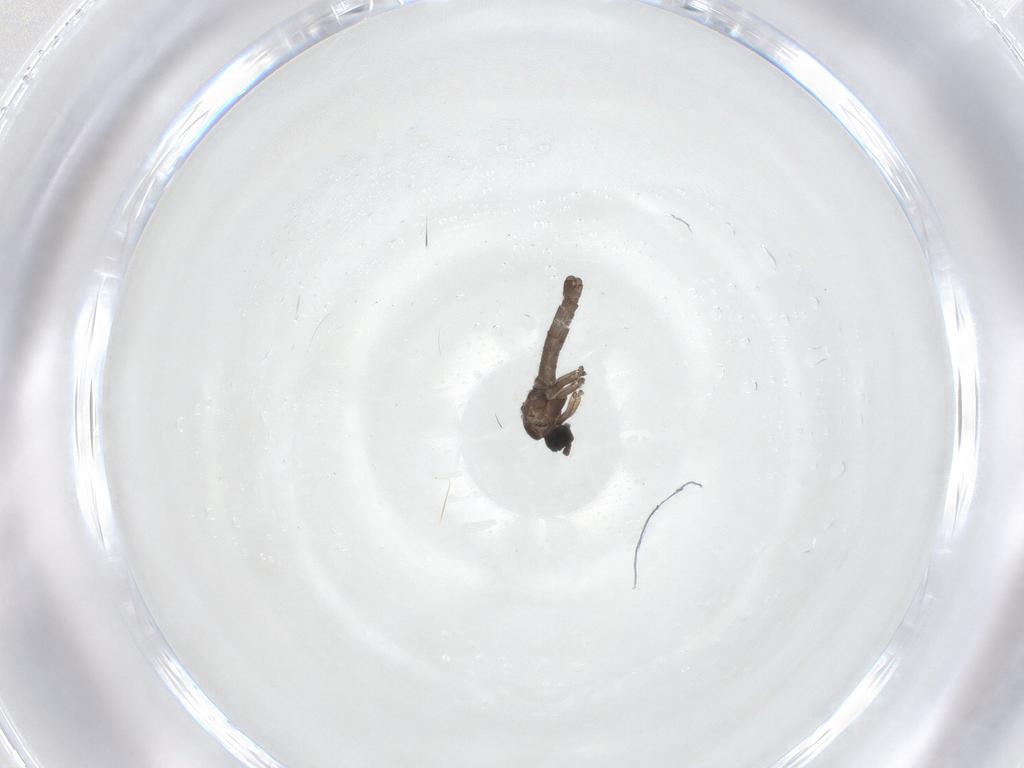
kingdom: Animalia
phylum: Arthropoda
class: Insecta
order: Diptera
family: Sciaridae
